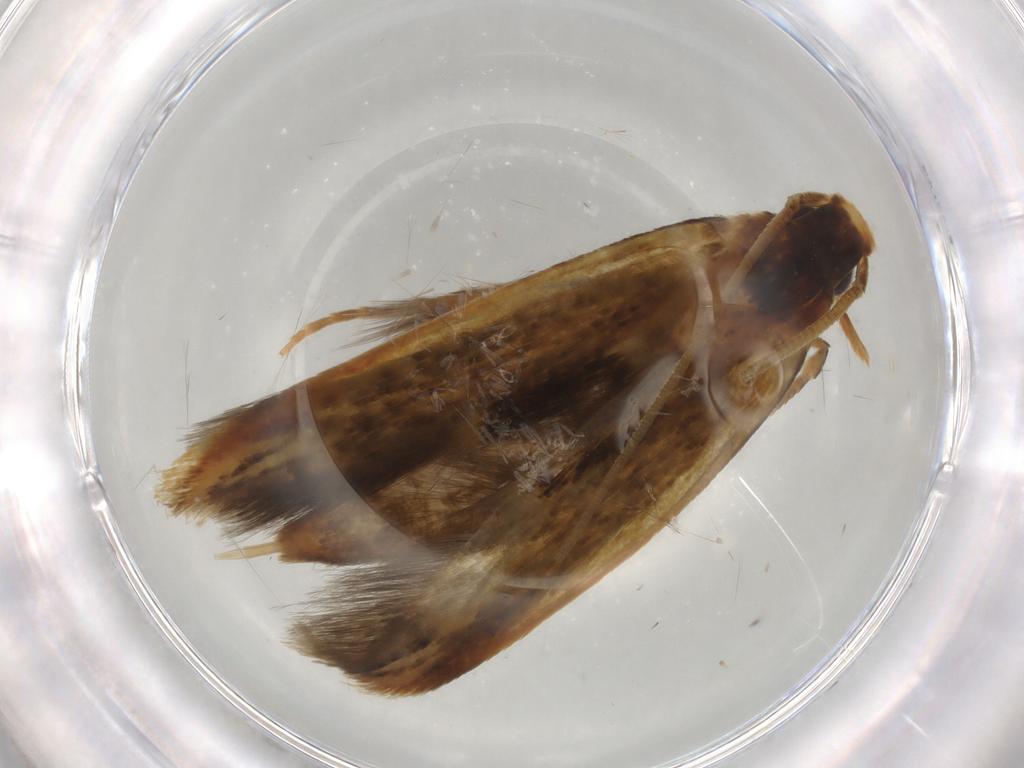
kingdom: Animalia
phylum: Arthropoda
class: Insecta
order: Lepidoptera
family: Tineidae
